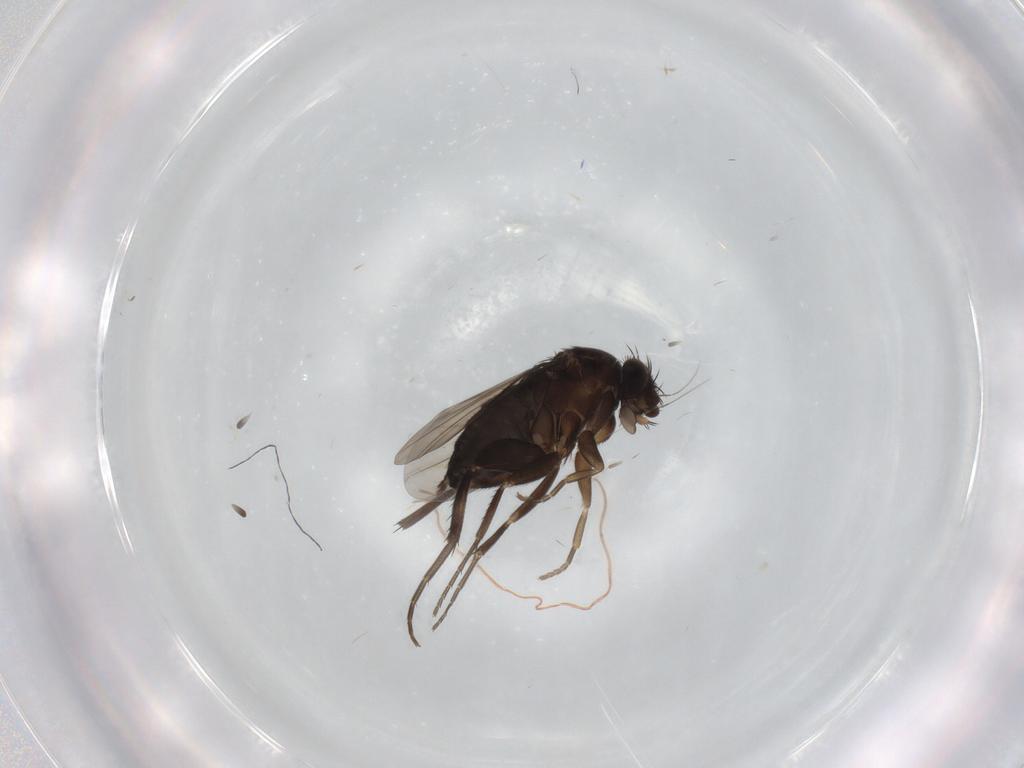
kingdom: Animalia
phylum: Arthropoda
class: Insecta
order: Diptera
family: Phoridae
